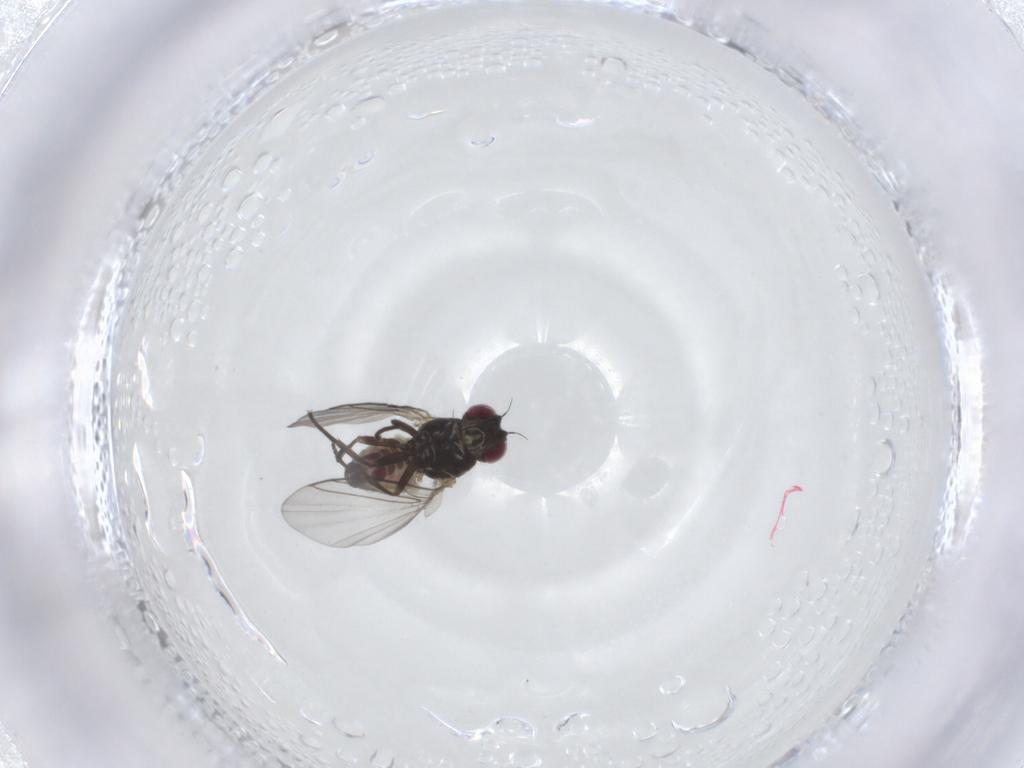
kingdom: Animalia
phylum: Arthropoda
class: Insecta
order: Diptera
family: Agromyzidae
